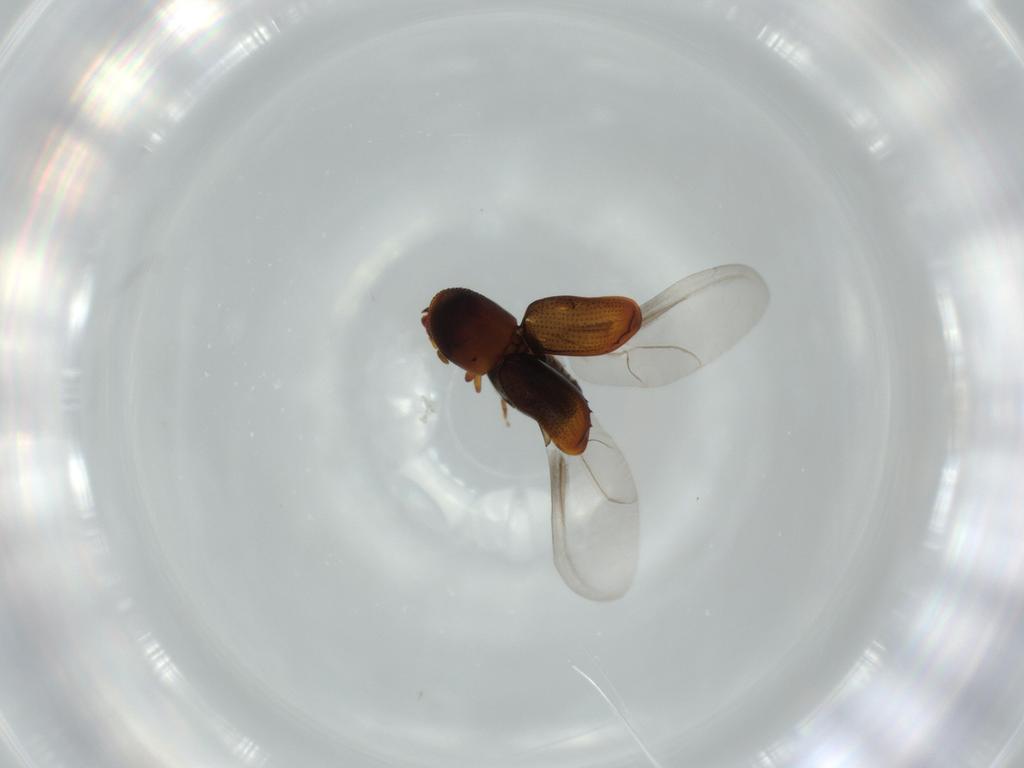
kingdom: Animalia
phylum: Arthropoda
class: Insecta
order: Coleoptera
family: Curculionidae
